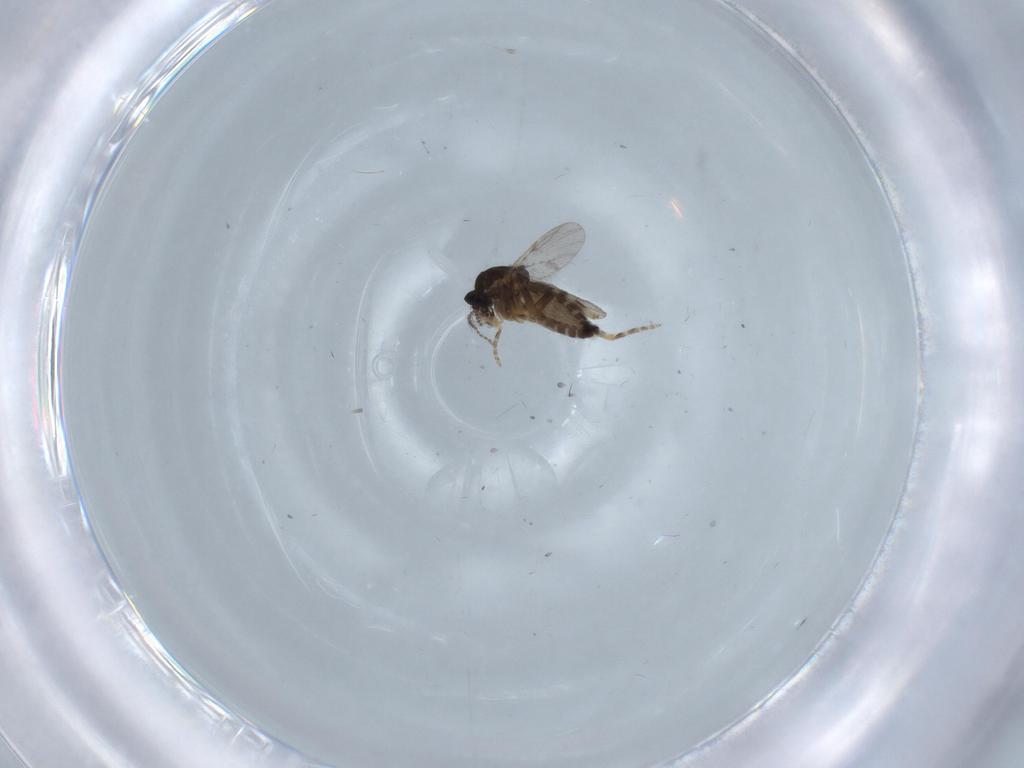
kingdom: Animalia
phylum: Arthropoda
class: Insecta
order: Diptera
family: Ceratopogonidae
